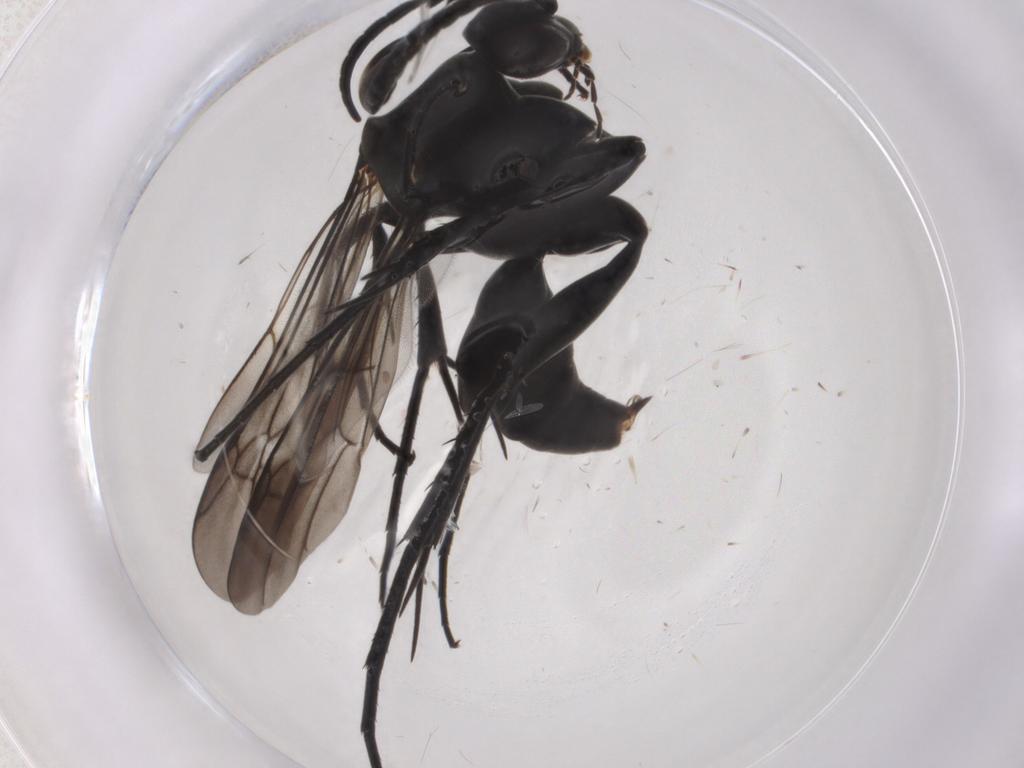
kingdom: Animalia
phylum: Arthropoda
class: Insecta
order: Hymenoptera
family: Pompilidae
